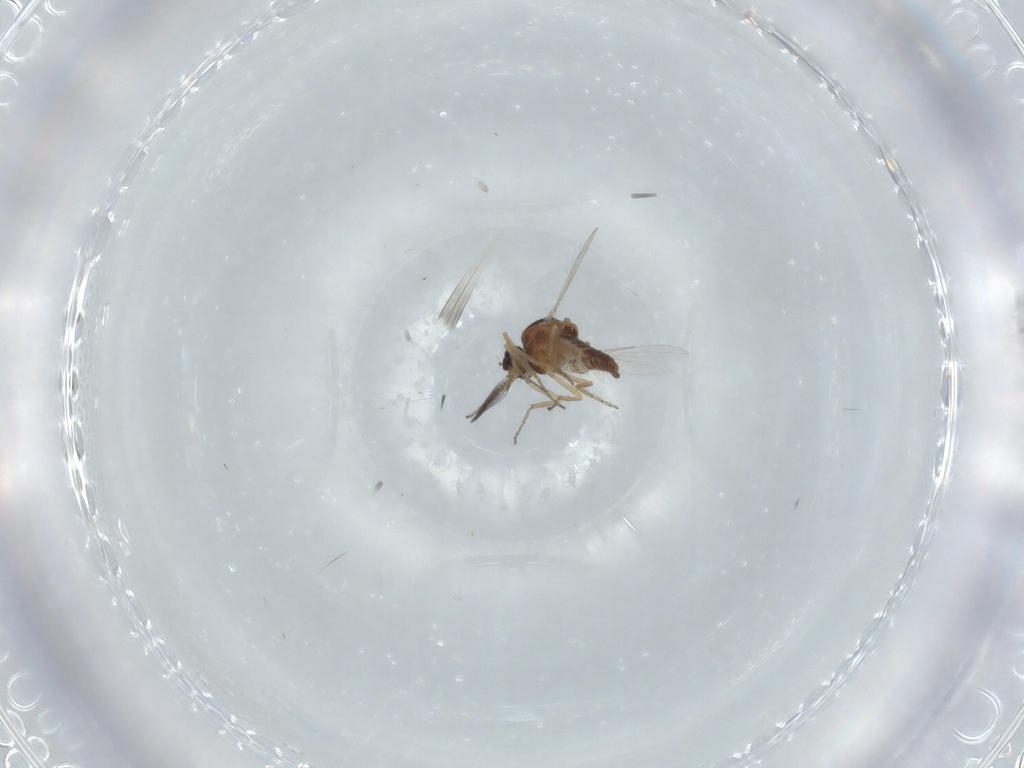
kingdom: Animalia
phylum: Arthropoda
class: Insecta
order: Diptera
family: Ceratopogonidae
